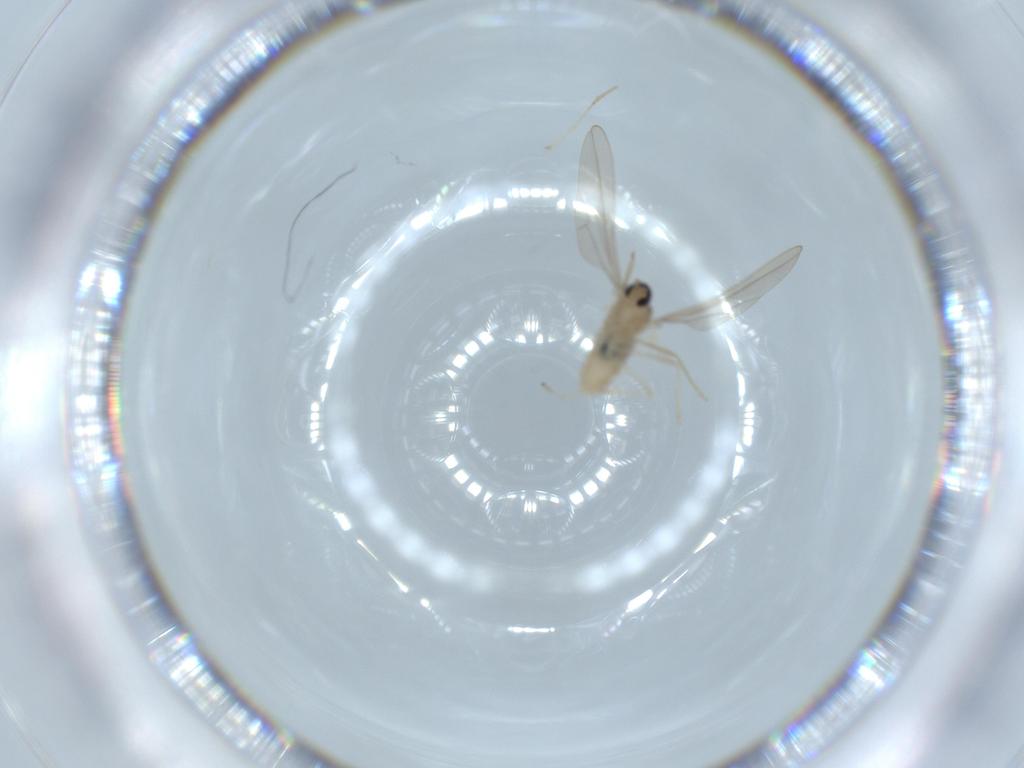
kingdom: Animalia
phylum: Arthropoda
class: Insecta
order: Diptera
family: Cecidomyiidae
